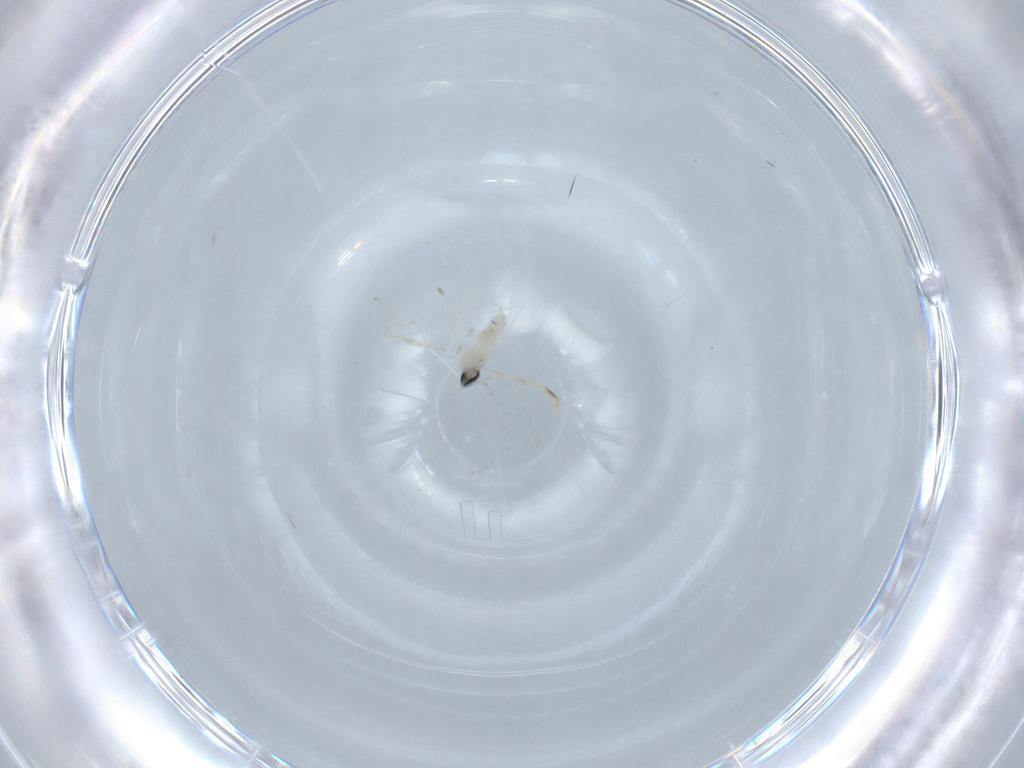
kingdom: Animalia
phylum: Arthropoda
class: Insecta
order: Diptera
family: Cecidomyiidae
